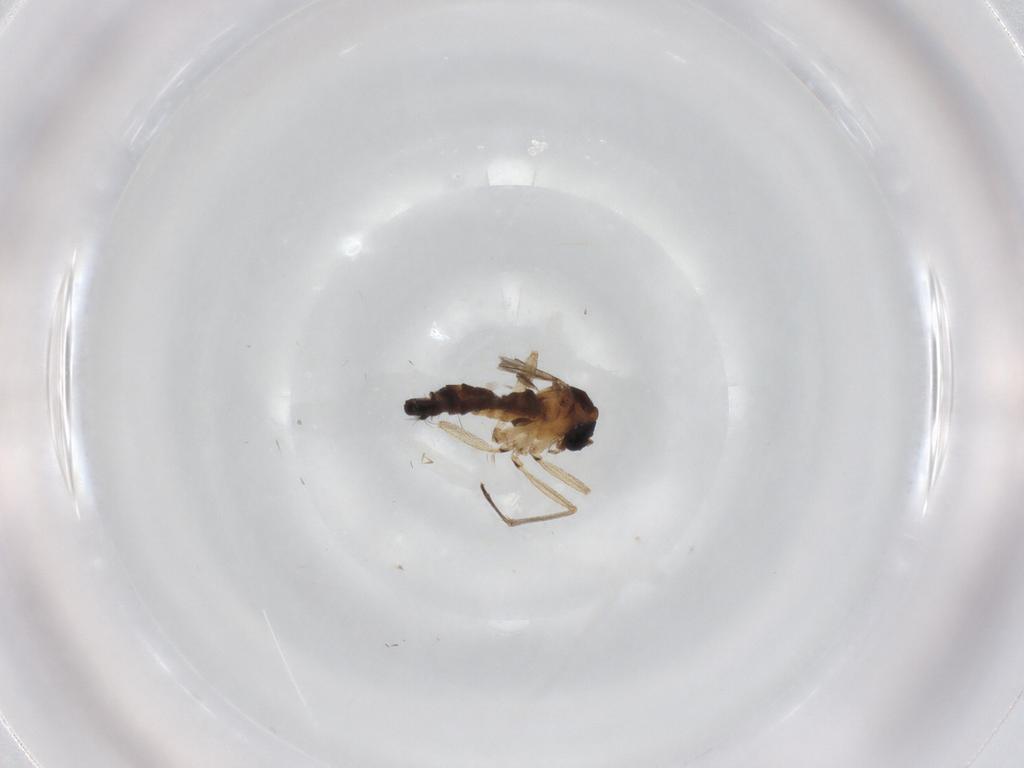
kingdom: Animalia
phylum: Arthropoda
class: Insecta
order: Diptera
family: Sciaridae
